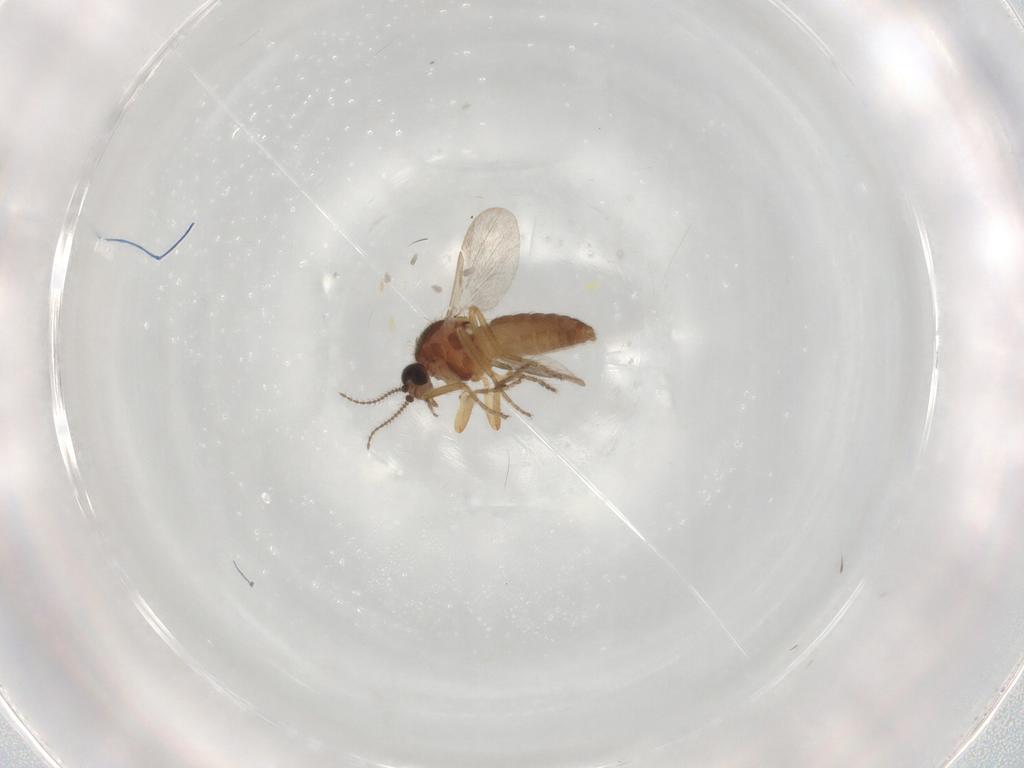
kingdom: Animalia
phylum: Arthropoda
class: Insecta
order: Diptera
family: Ceratopogonidae
